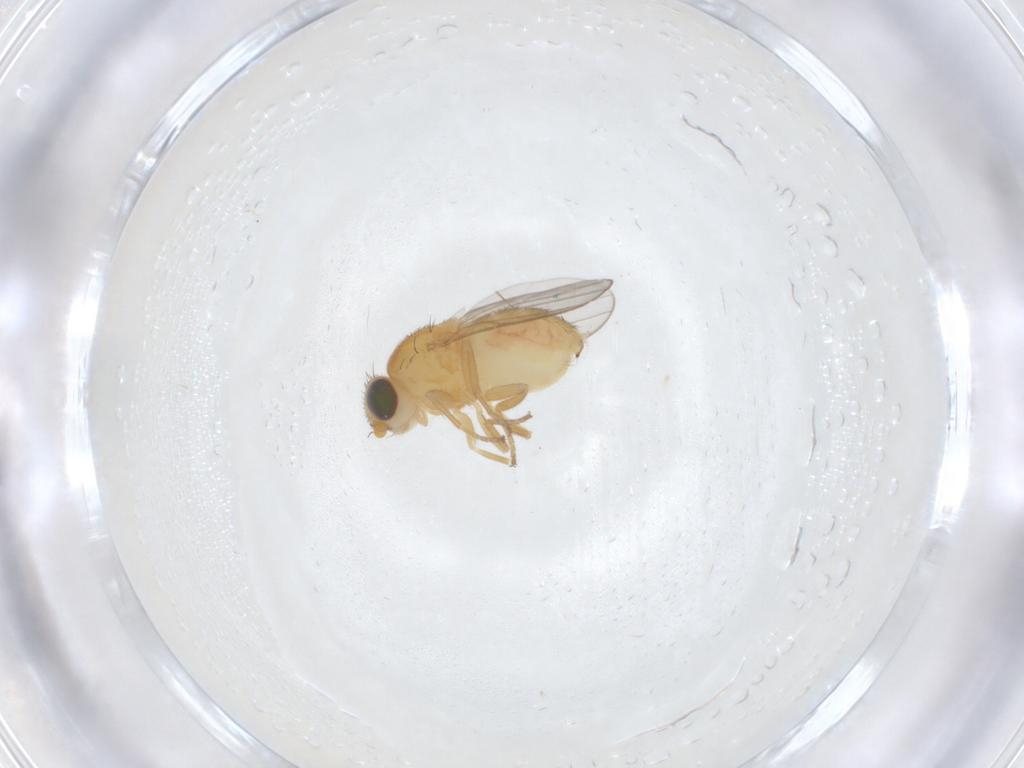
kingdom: Animalia
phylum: Arthropoda
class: Insecta
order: Diptera
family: Chloropidae
